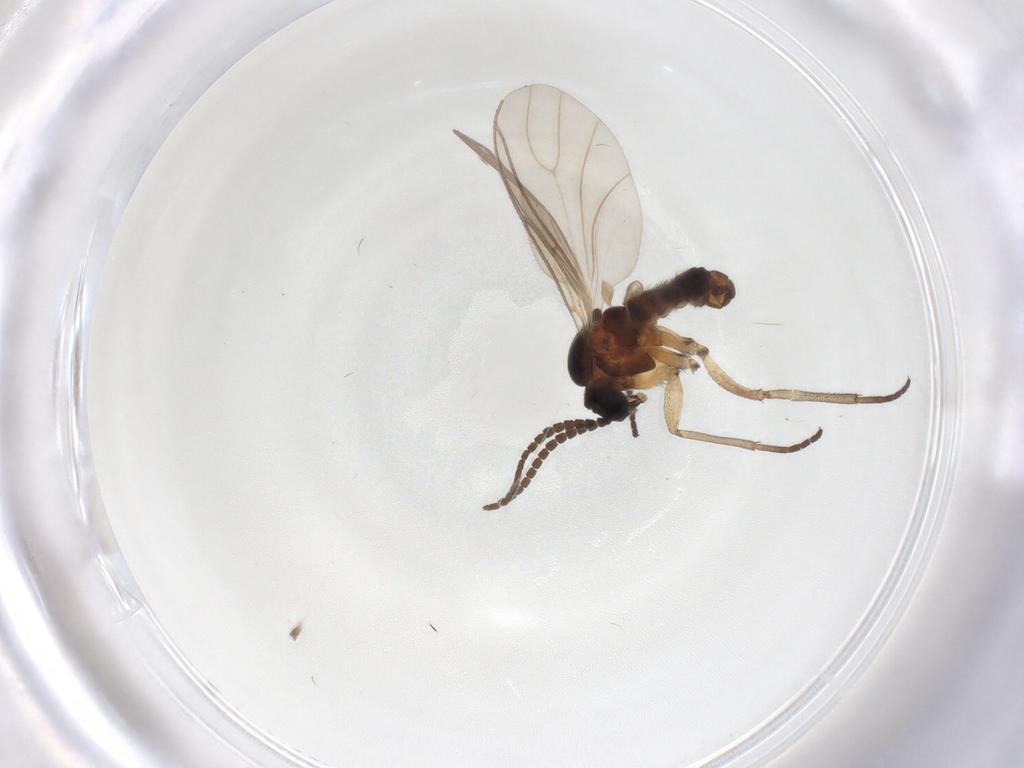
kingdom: Animalia
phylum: Arthropoda
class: Insecta
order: Diptera
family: Sciaridae
